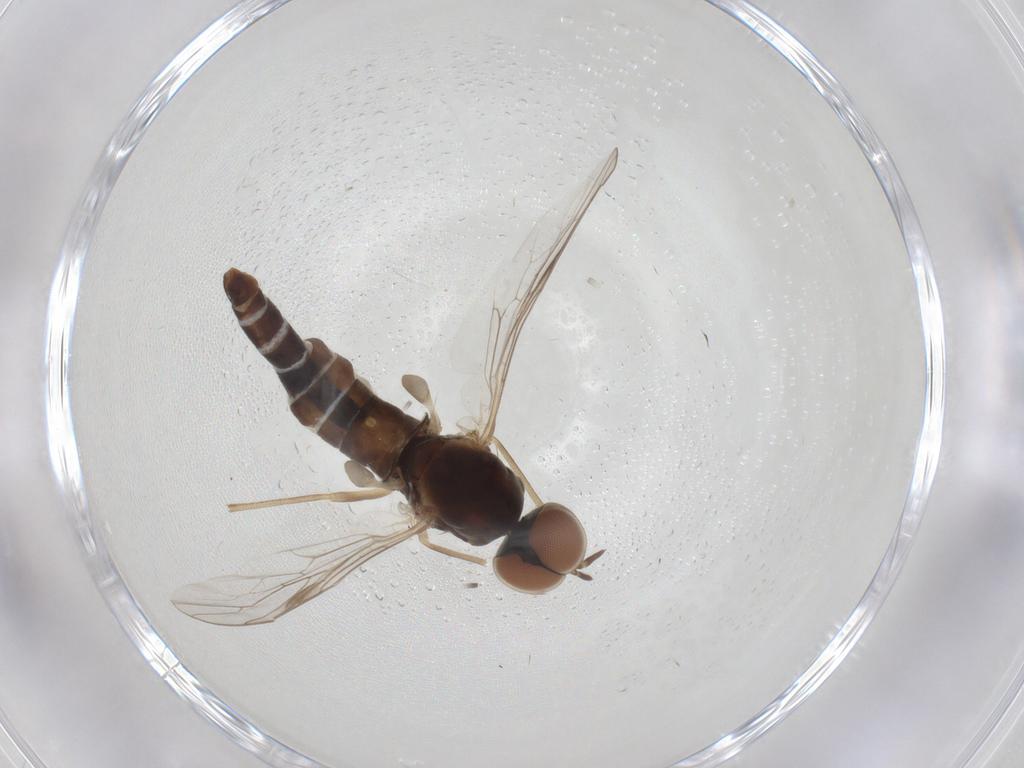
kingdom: Animalia
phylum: Arthropoda
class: Insecta
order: Diptera
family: Scenopinidae
